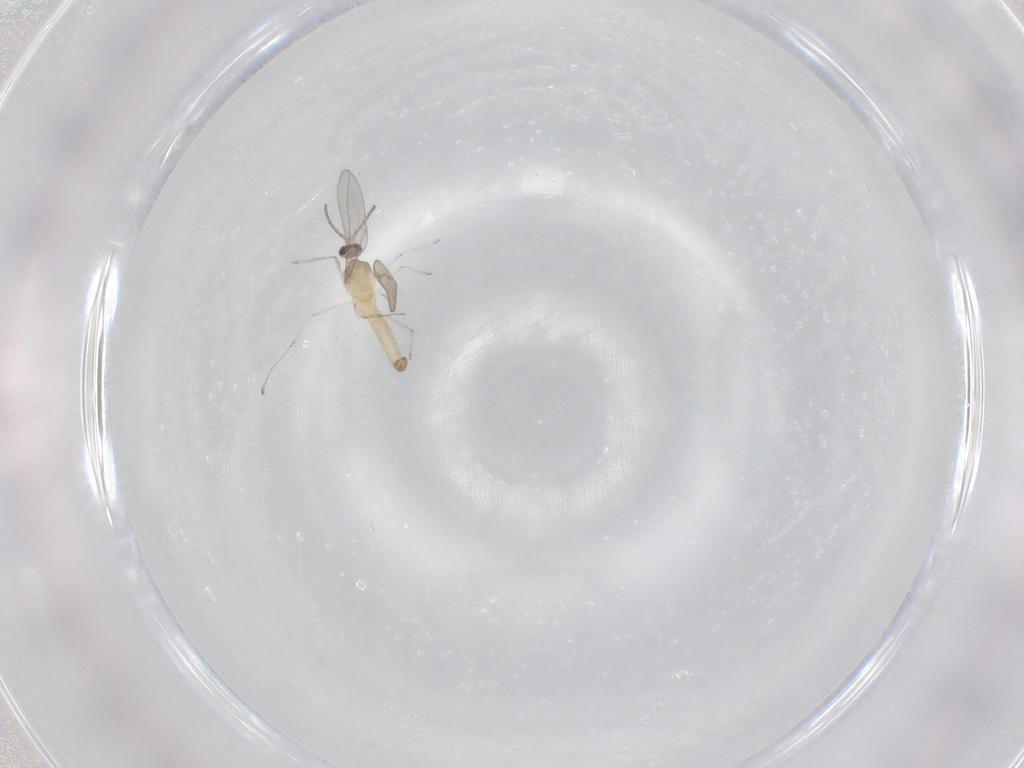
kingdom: Animalia
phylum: Arthropoda
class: Insecta
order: Diptera
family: Cecidomyiidae
